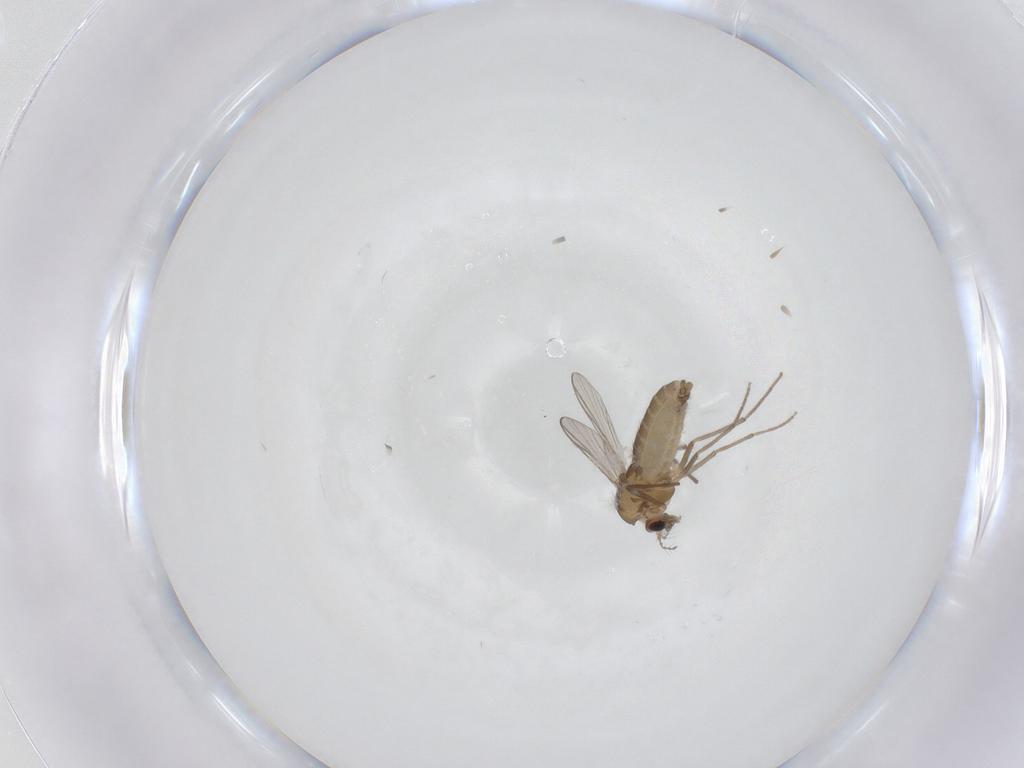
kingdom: Animalia
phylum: Arthropoda
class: Insecta
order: Diptera
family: Chironomidae
